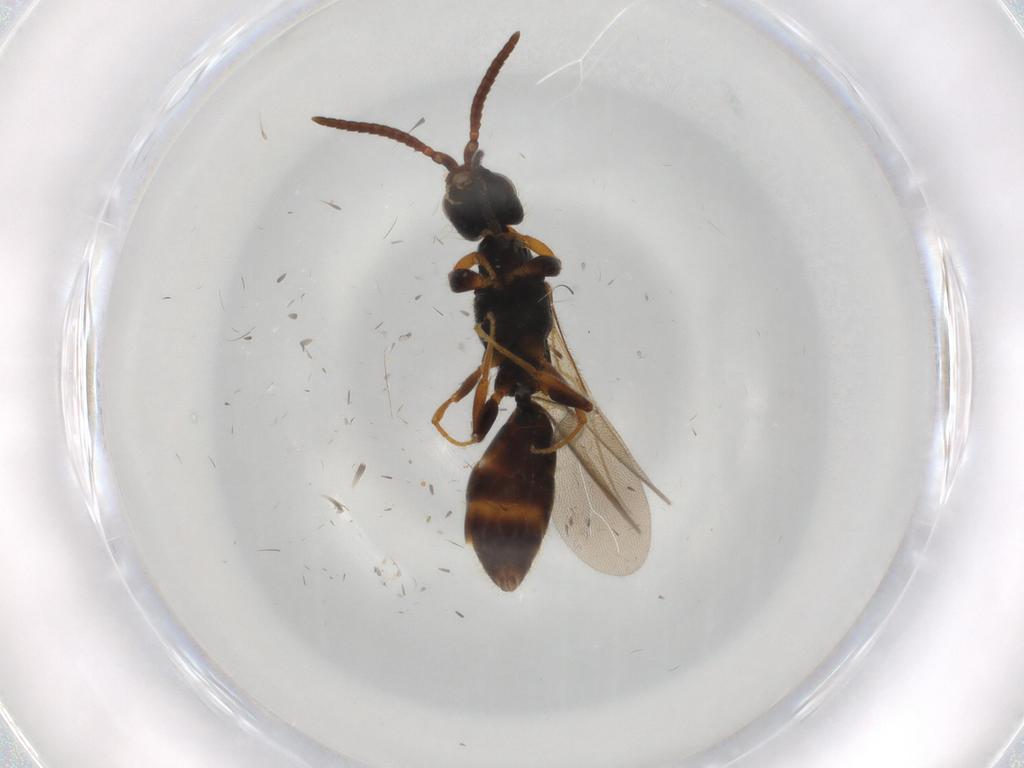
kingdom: Animalia
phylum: Arthropoda
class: Insecta
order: Hymenoptera
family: Bethylidae
